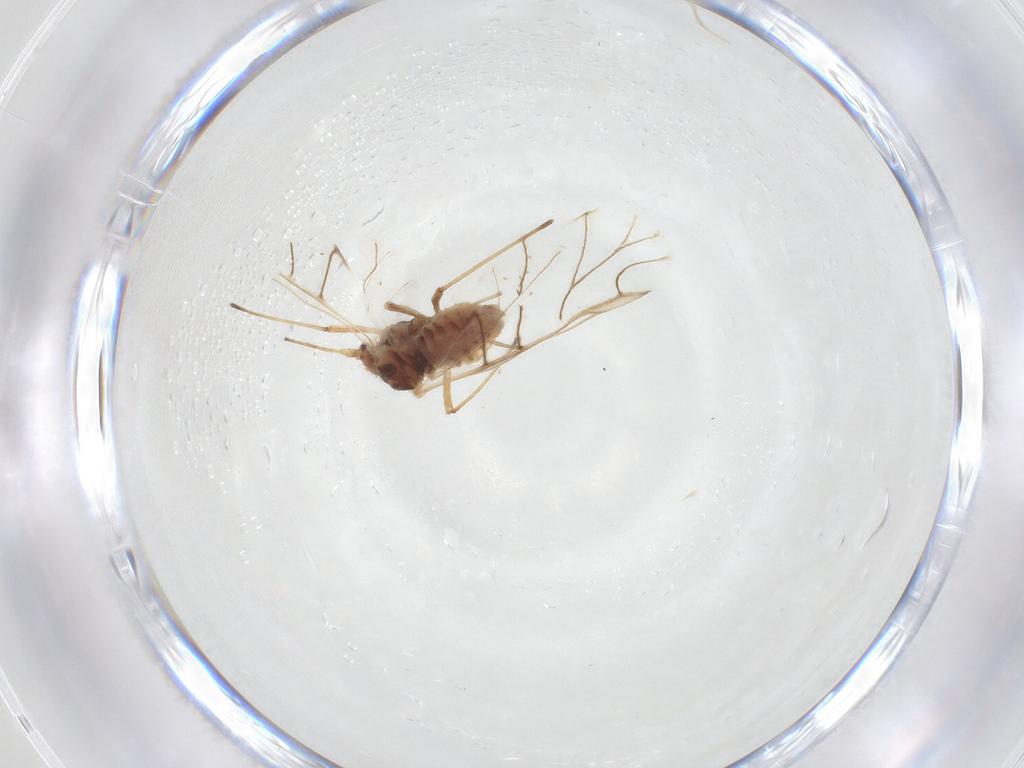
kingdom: Animalia
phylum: Arthropoda
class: Insecta
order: Hemiptera
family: Aphididae
